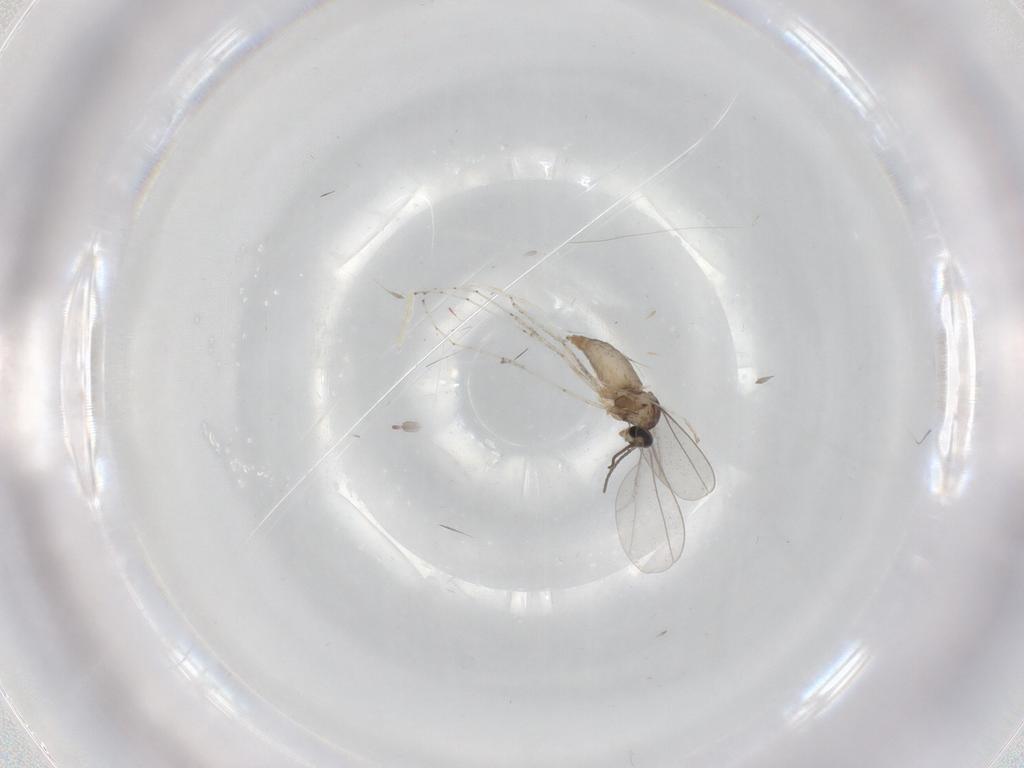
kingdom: Animalia
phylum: Arthropoda
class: Insecta
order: Diptera
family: Cecidomyiidae
